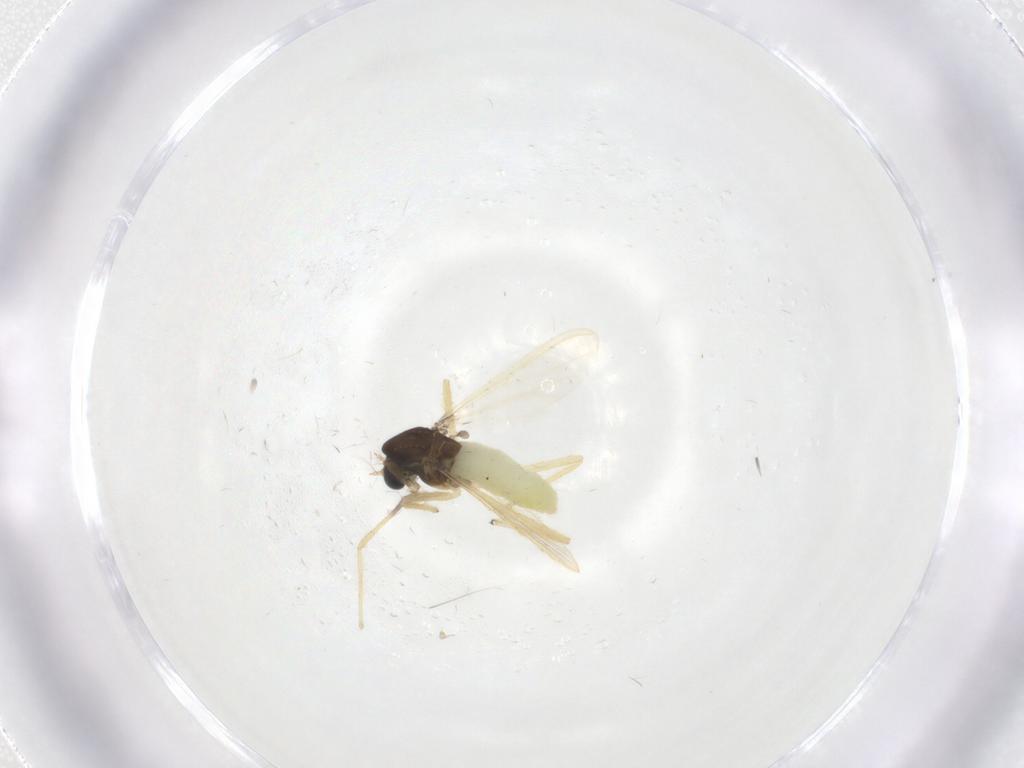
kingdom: Animalia
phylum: Arthropoda
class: Insecta
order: Diptera
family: Chironomidae
